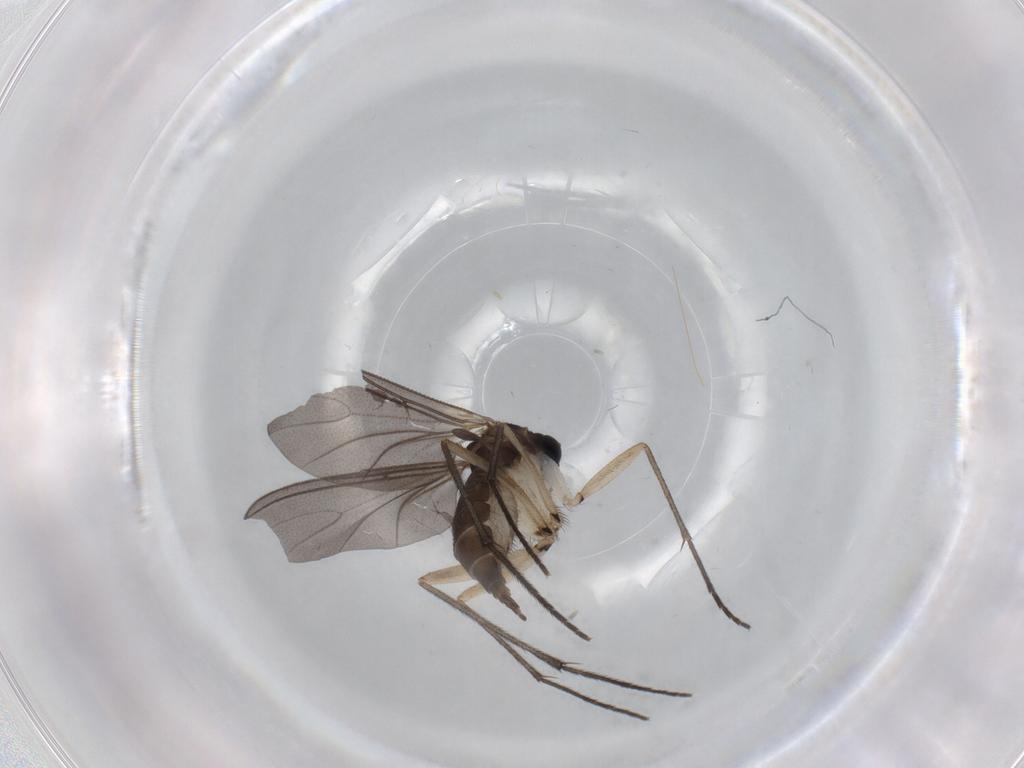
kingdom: Animalia
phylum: Arthropoda
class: Insecta
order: Diptera
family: Sciaridae
